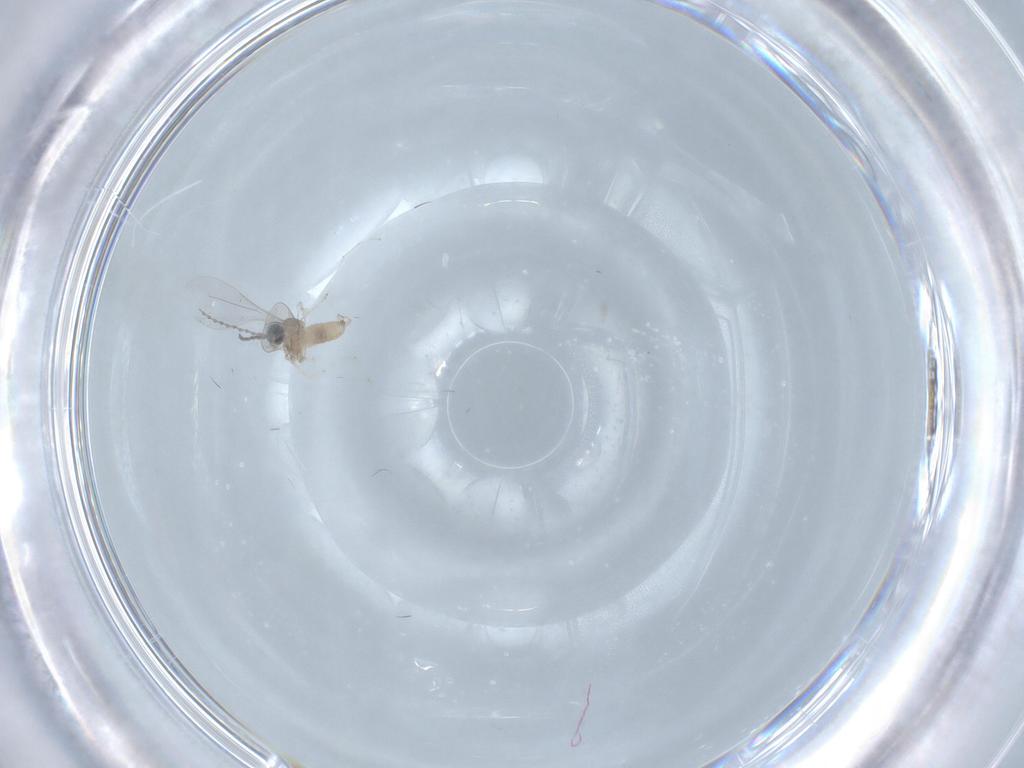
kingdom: Animalia
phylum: Arthropoda
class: Insecta
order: Diptera
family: Cecidomyiidae
